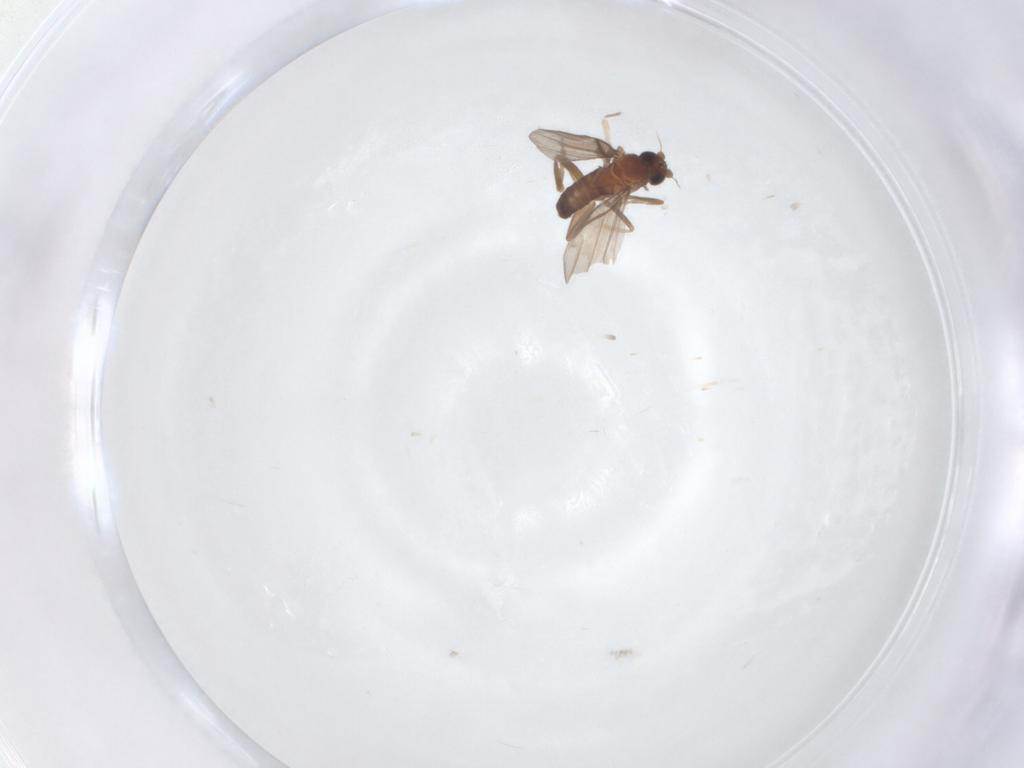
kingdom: Animalia
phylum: Arthropoda
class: Insecta
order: Diptera
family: Phoridae
